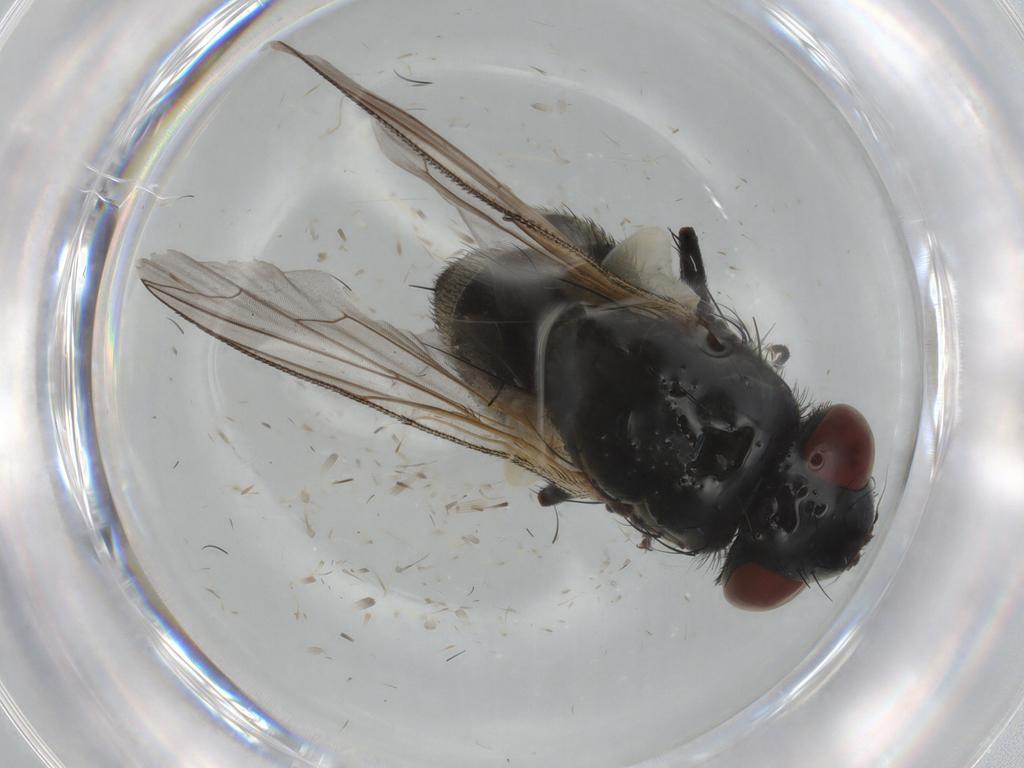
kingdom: Animalia
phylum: Arthropoda
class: Insecta
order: Diptera
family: Sarcophagidae
